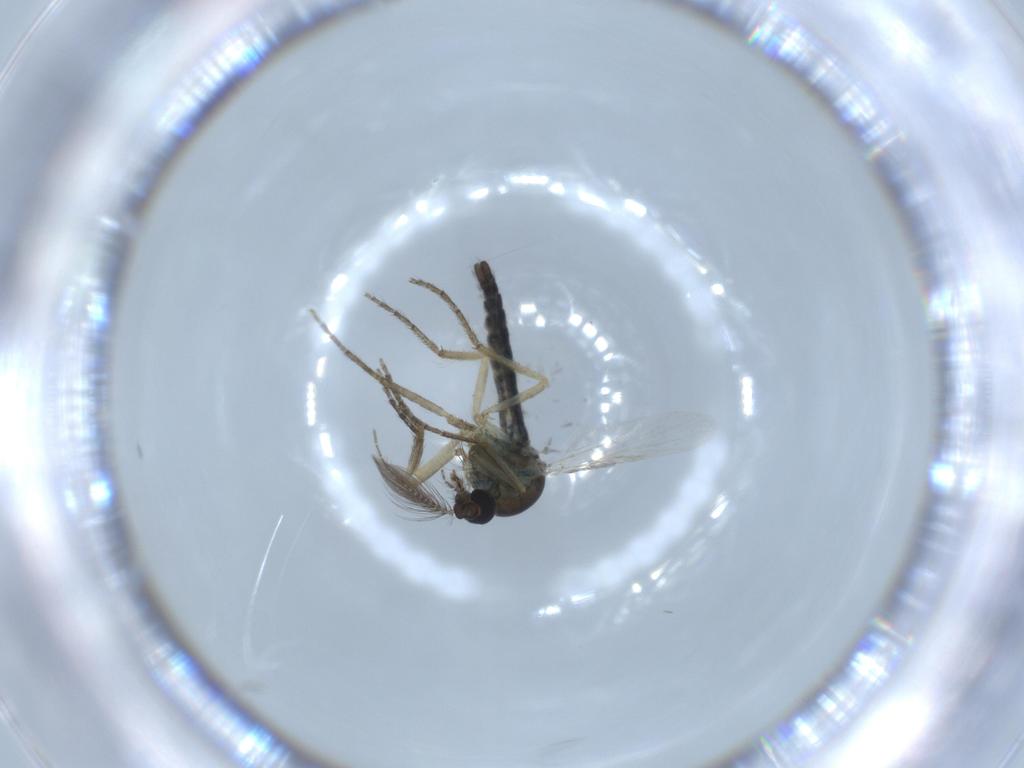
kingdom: Animalia
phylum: Arthropoda
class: Insecta
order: Diptera
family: Ceratopogonidae
